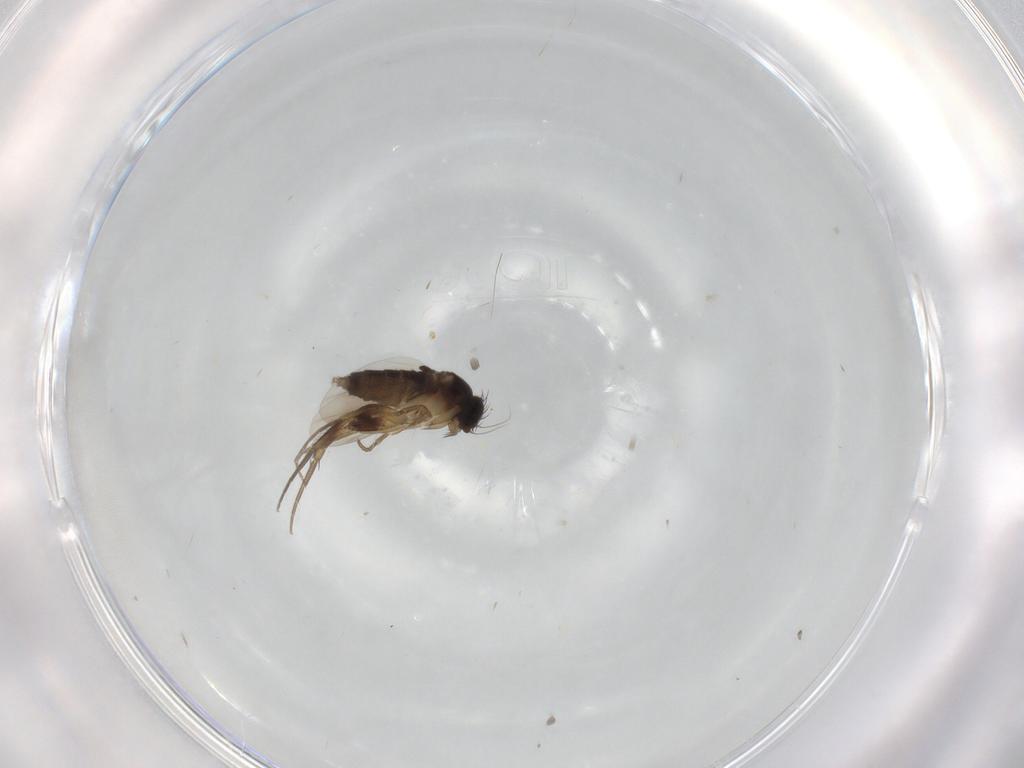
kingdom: Animalia
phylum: Arthropoda
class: Insecta
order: Diptera
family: Phoridae
